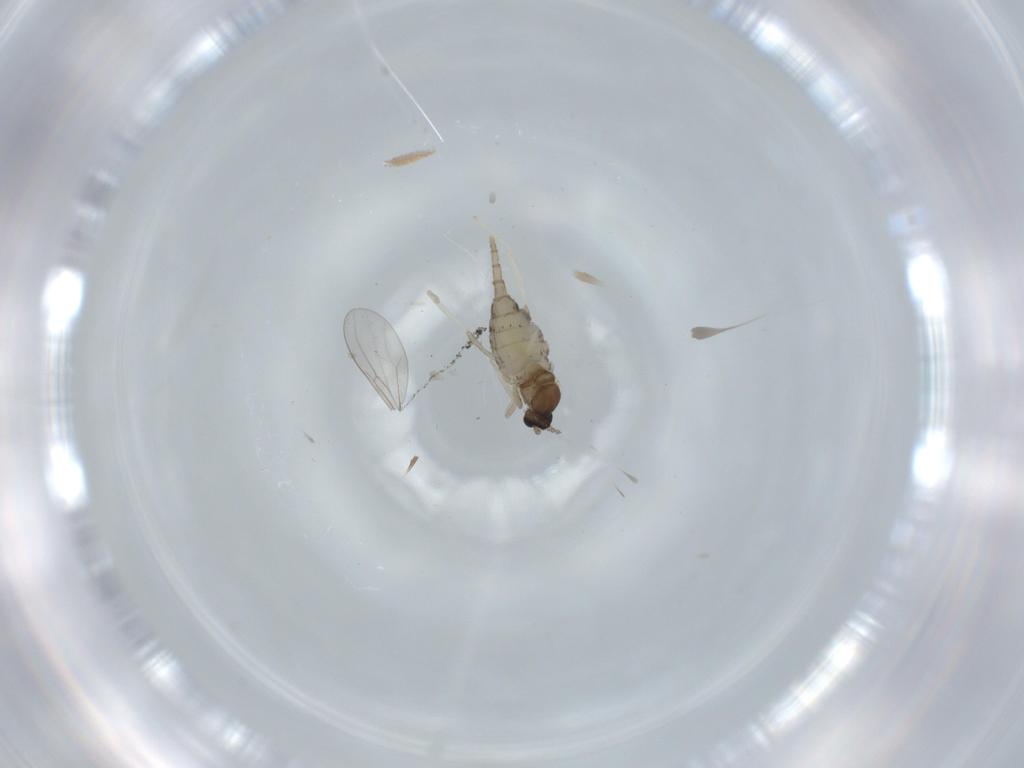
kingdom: Animalia
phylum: Arthropoda
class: Insecta
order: Diptera
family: Cecidomyiidae
